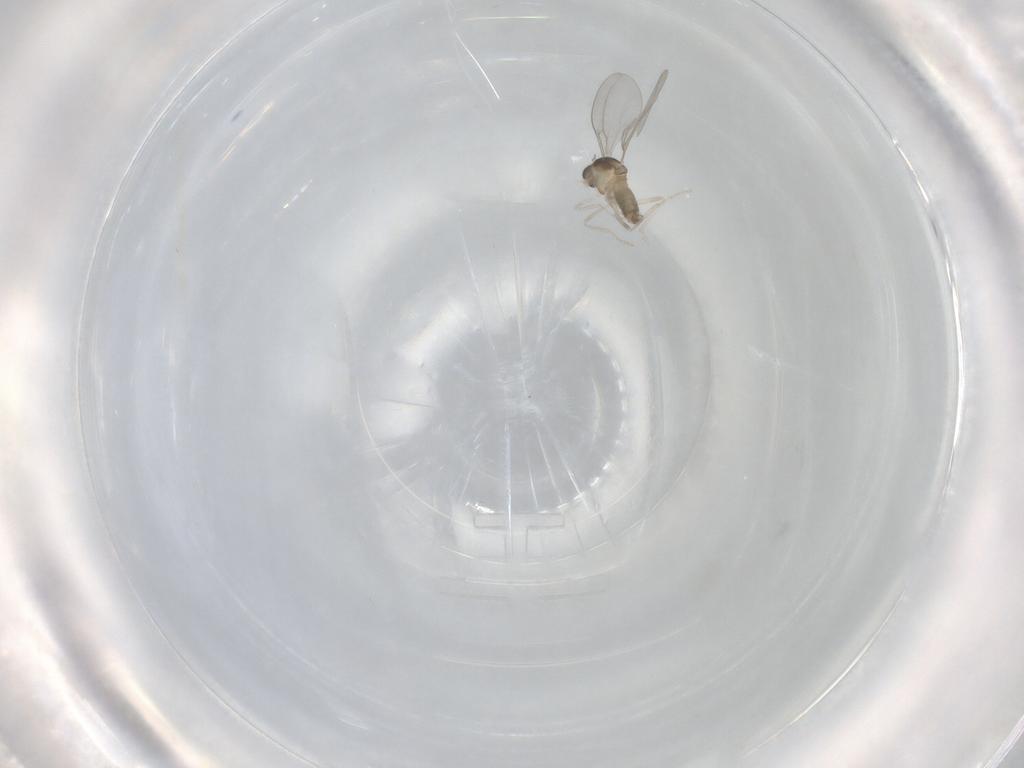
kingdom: Animalia
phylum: Arthropoda
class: Insecta
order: Diptera
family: Cecidomyiidae
